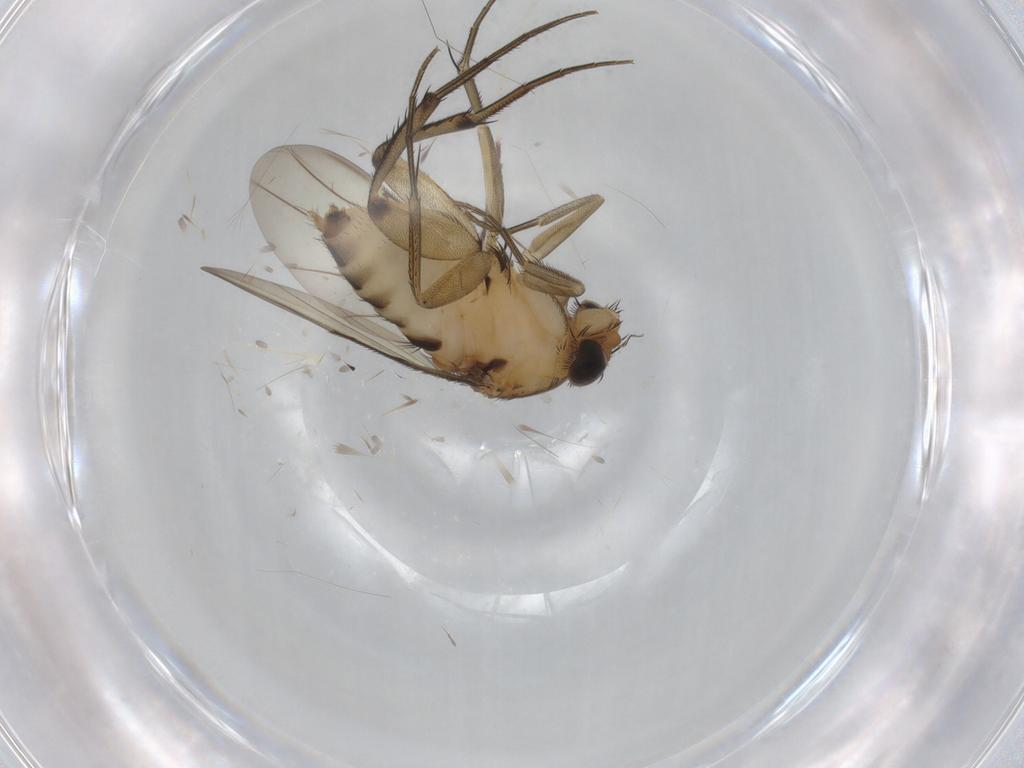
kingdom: Animalia
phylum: Arthropoda
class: Insecta
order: Diptera
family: Limoniidae
